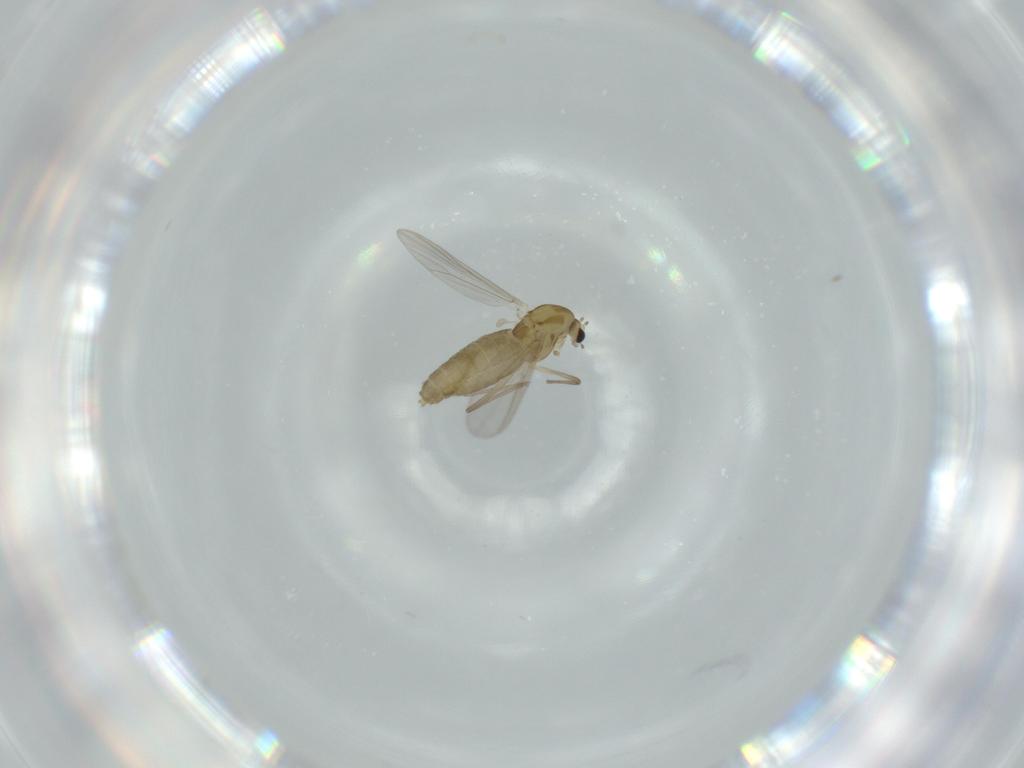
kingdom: Animalia
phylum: Arthropoda
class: Insecta
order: Diptera
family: Chironomidae
